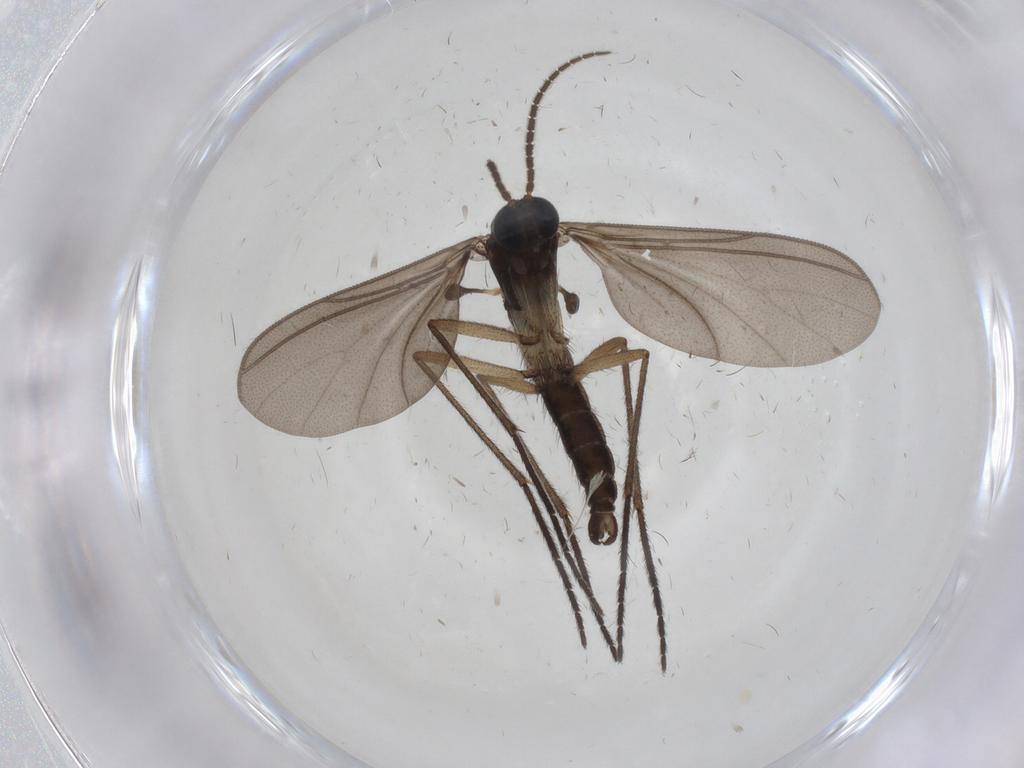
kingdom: Animalia
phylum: Arthropoda
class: Insecta
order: Diptera
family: Sciaridae
